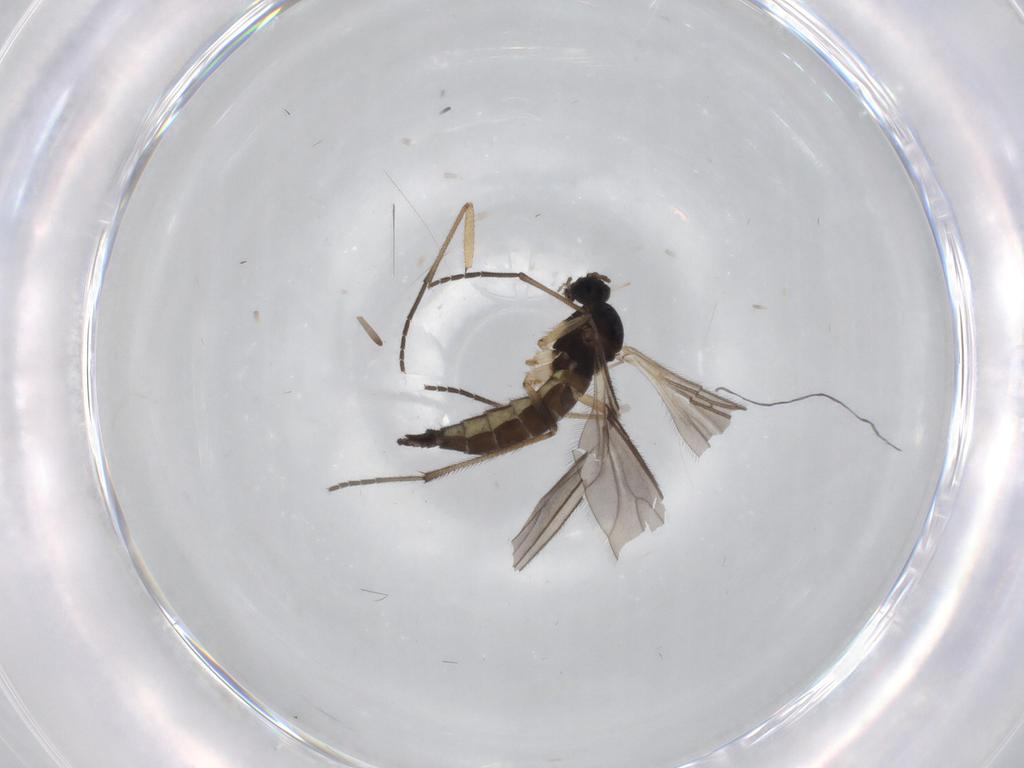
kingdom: Animalia
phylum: Arthropoda
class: Insecta
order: Diptera
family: Sciaridae
